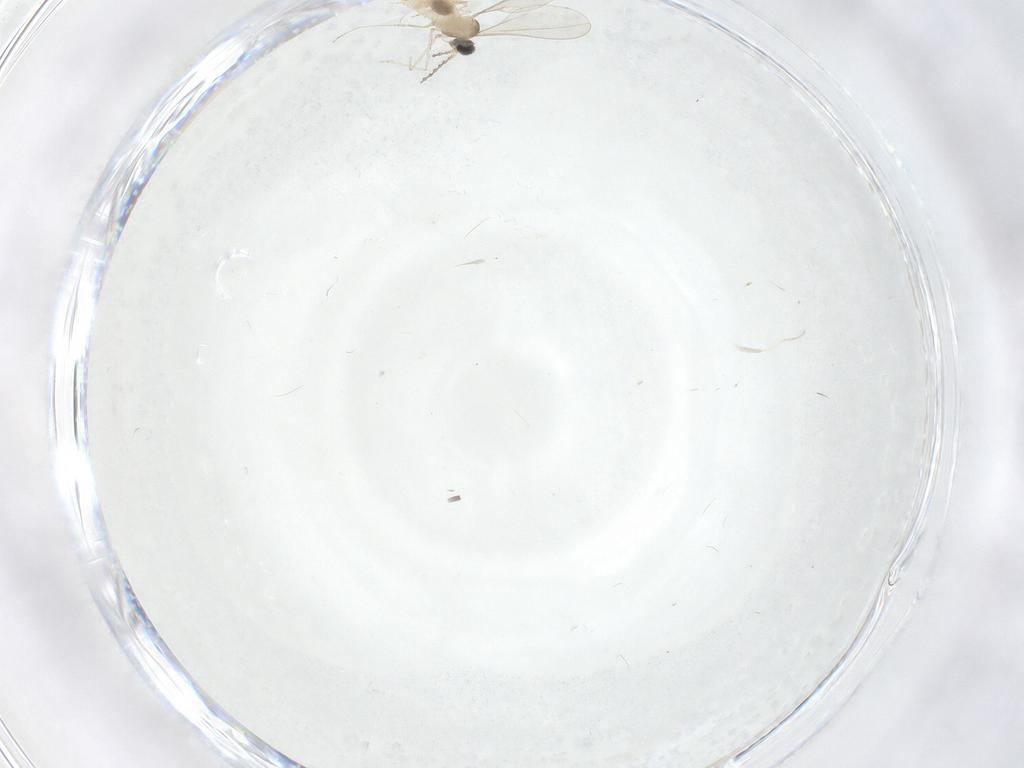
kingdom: Animalia
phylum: Arthropoda
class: Insecta
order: Diptera
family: Cecidomyiidae
